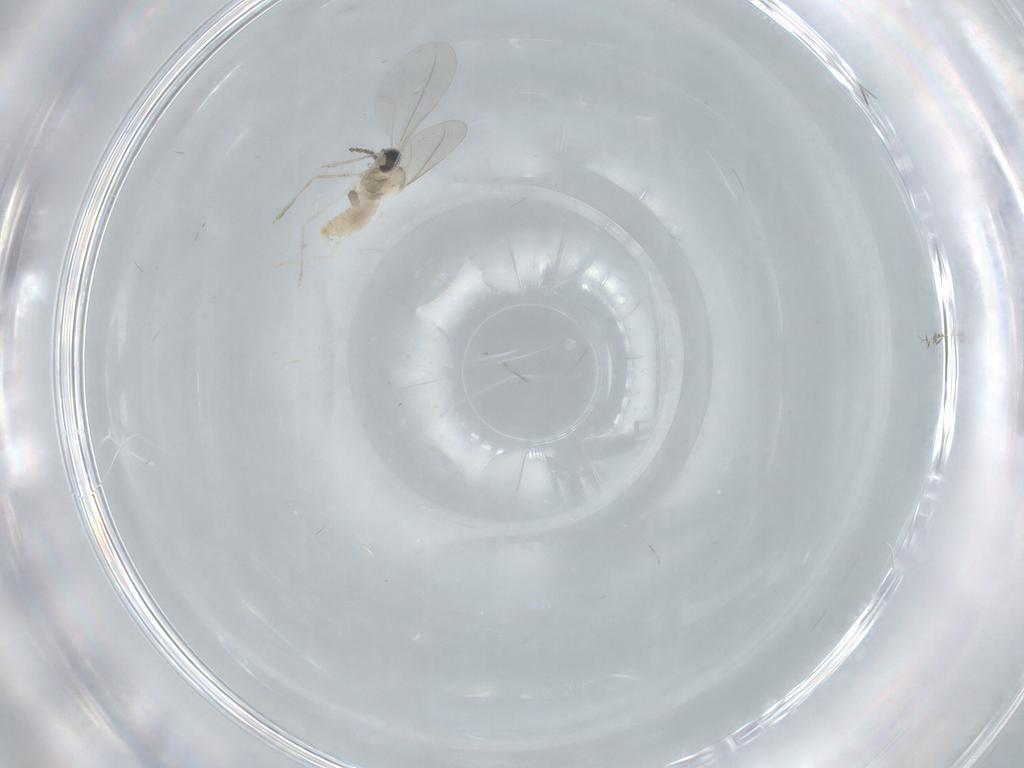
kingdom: Animalia
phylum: Arthropoda
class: Insecta
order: Diptera
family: Cecidomyiidae
